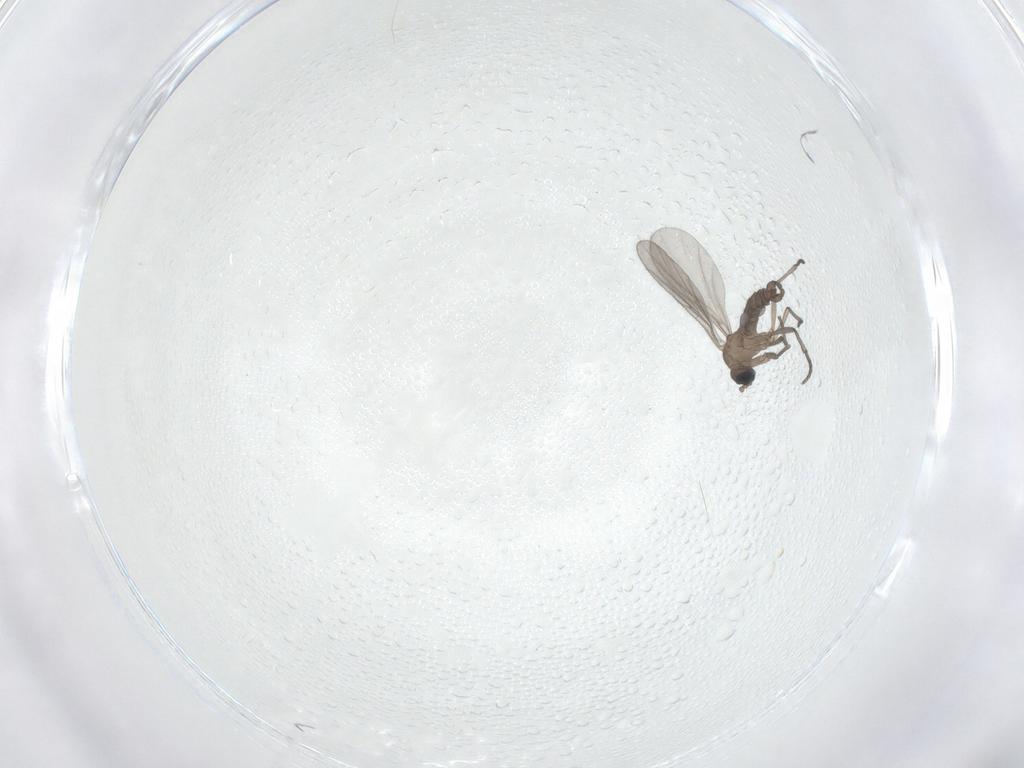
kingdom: Animalia
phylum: Arthropoda
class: Insecta
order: Diptera
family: Sciaridae
